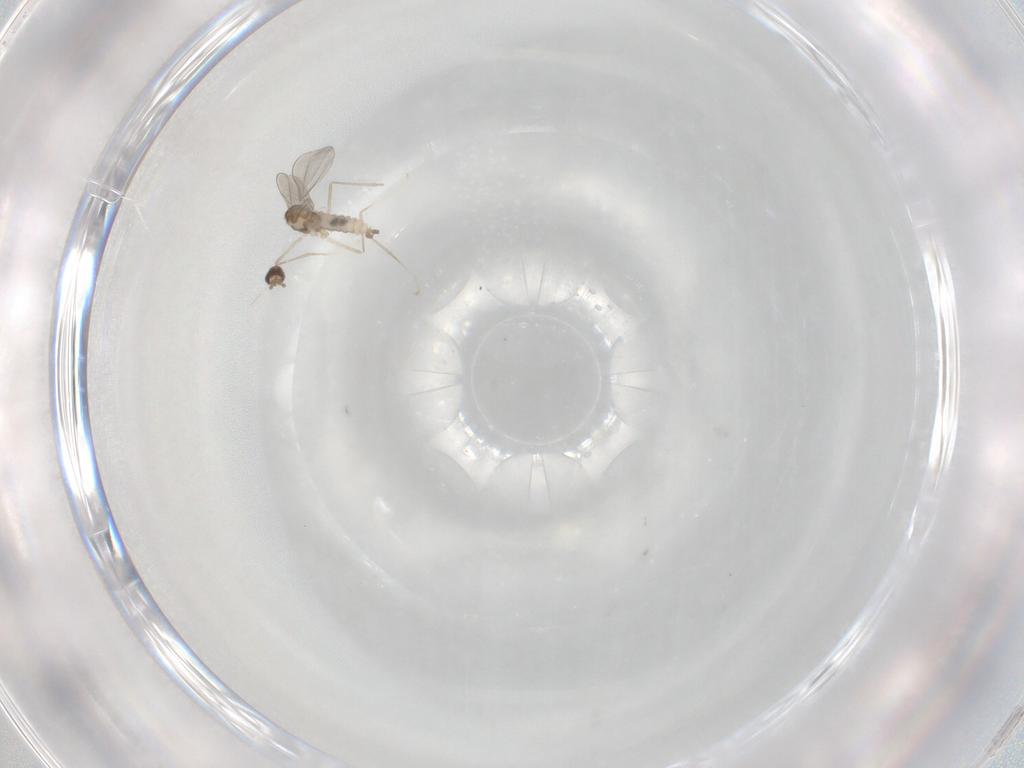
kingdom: Animalia
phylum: Arthropoda
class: Insecta
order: Diptera
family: Cecidomyiidae
